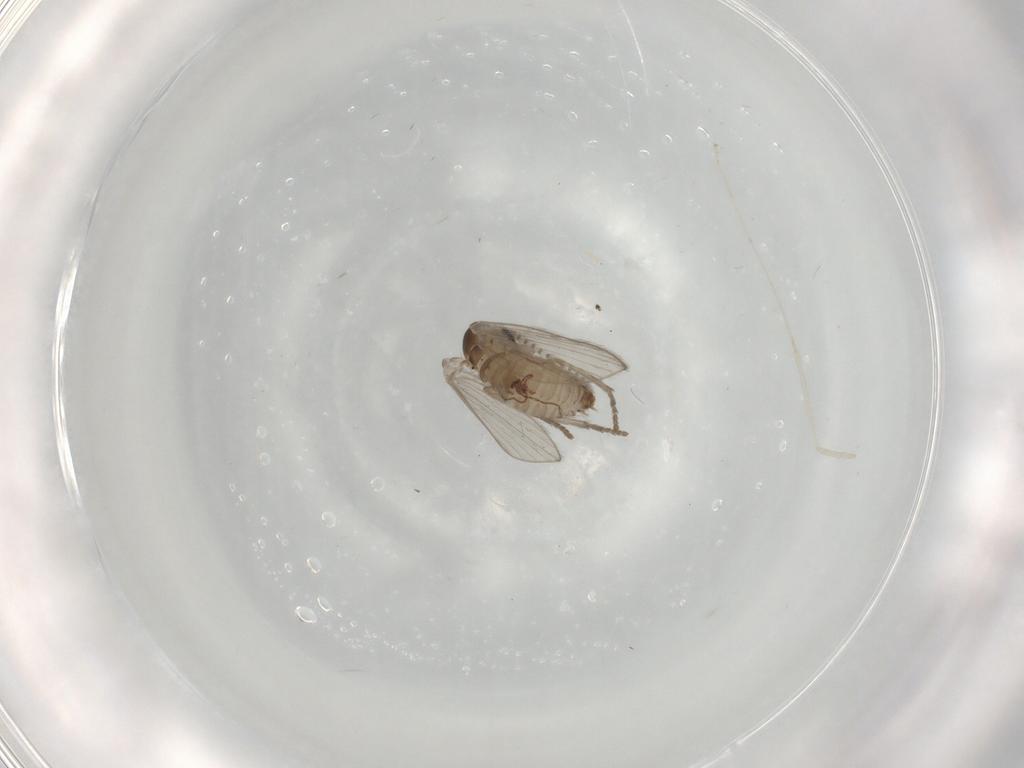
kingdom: Animalia
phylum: Arthropoda
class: Insecta
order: Diptera
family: Psychodidae
